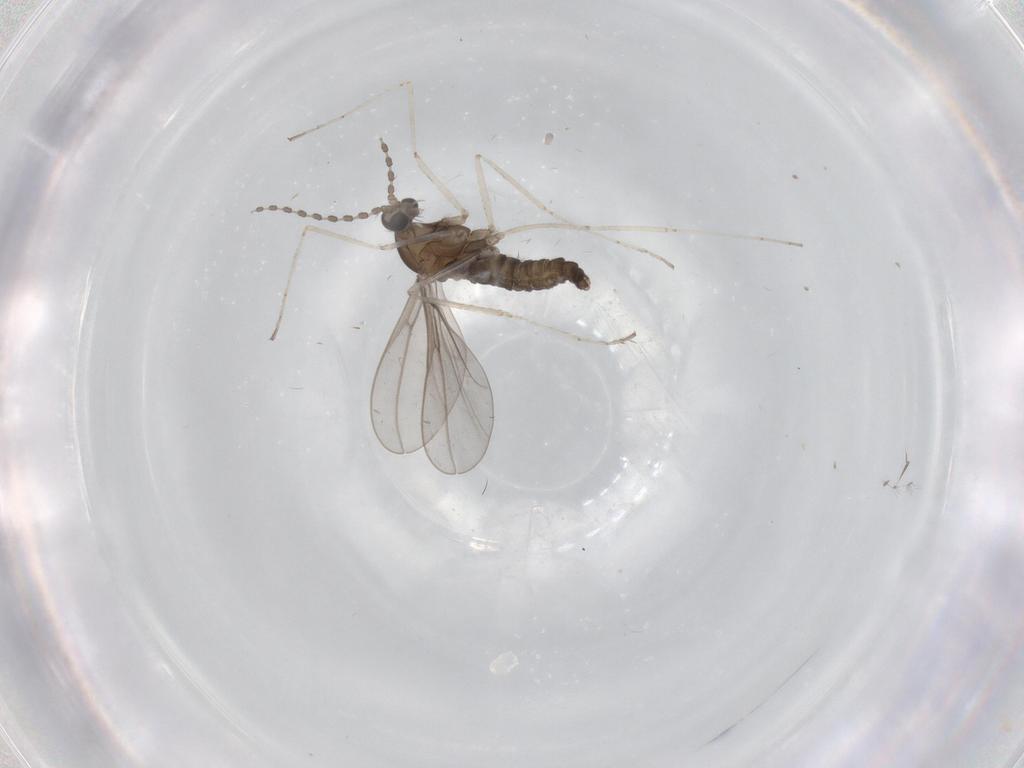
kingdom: Animalia
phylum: Arthropoda
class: Insecta
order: Diptera
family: Cecidomyiidae
